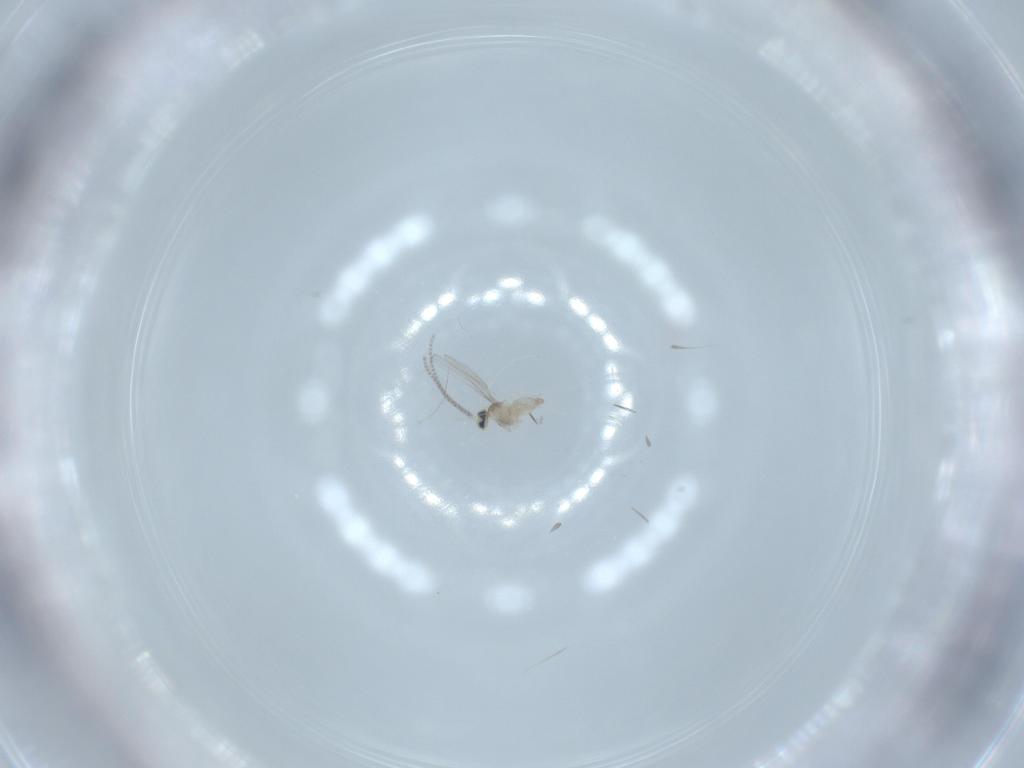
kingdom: Animalia
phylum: Arthropoda
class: Insecta
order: Diptera
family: Cecidomyiidae
